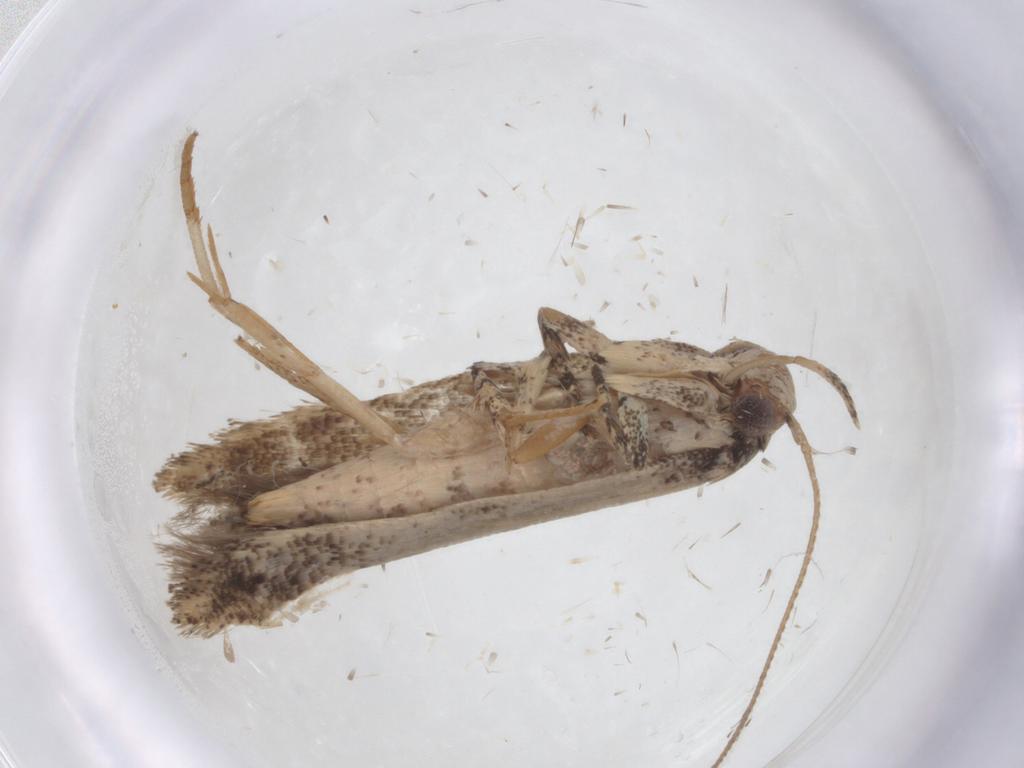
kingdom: Animalia
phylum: Arthropoda
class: Insecta
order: Lepidoptera
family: Gelechiidae
